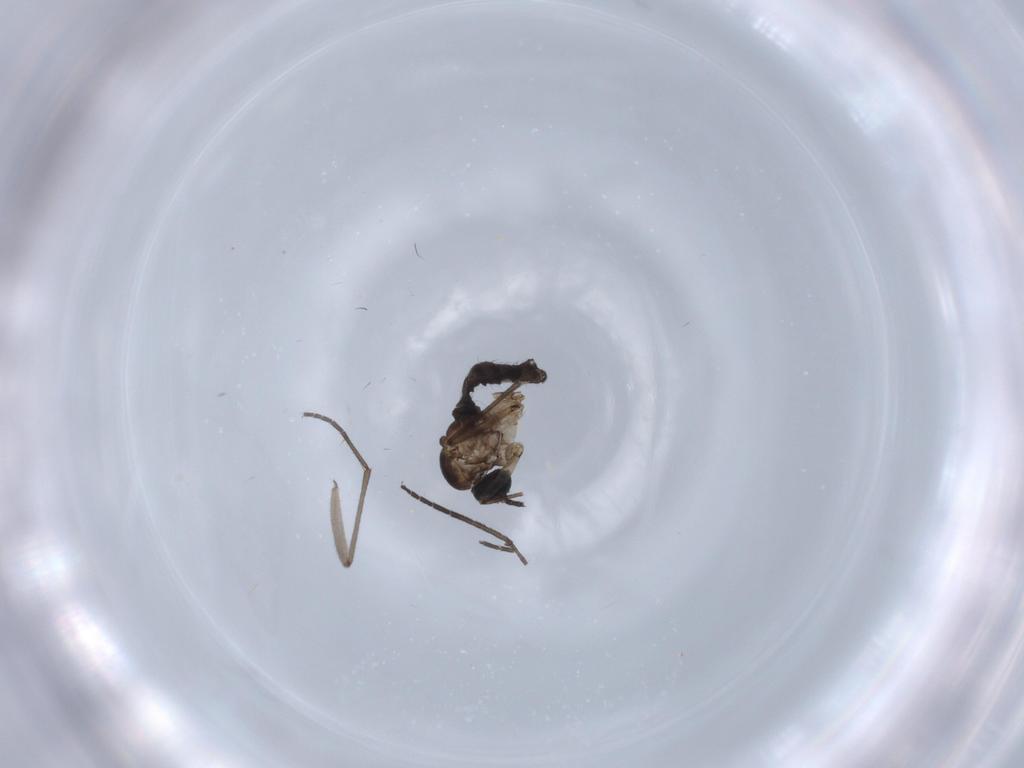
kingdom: Animalia
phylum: Arthropoda
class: Insecta
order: Diptera
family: Sciaridae
